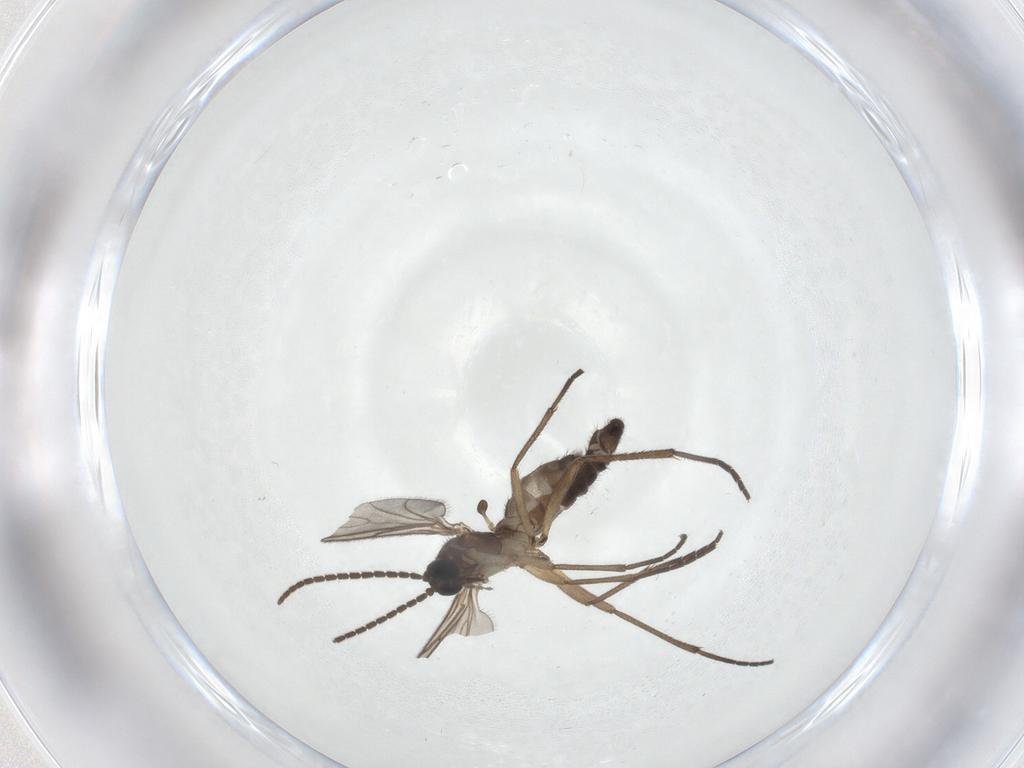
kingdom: Animalia
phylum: Arthropoda
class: Insecta
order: Diptera
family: Sciaridae
